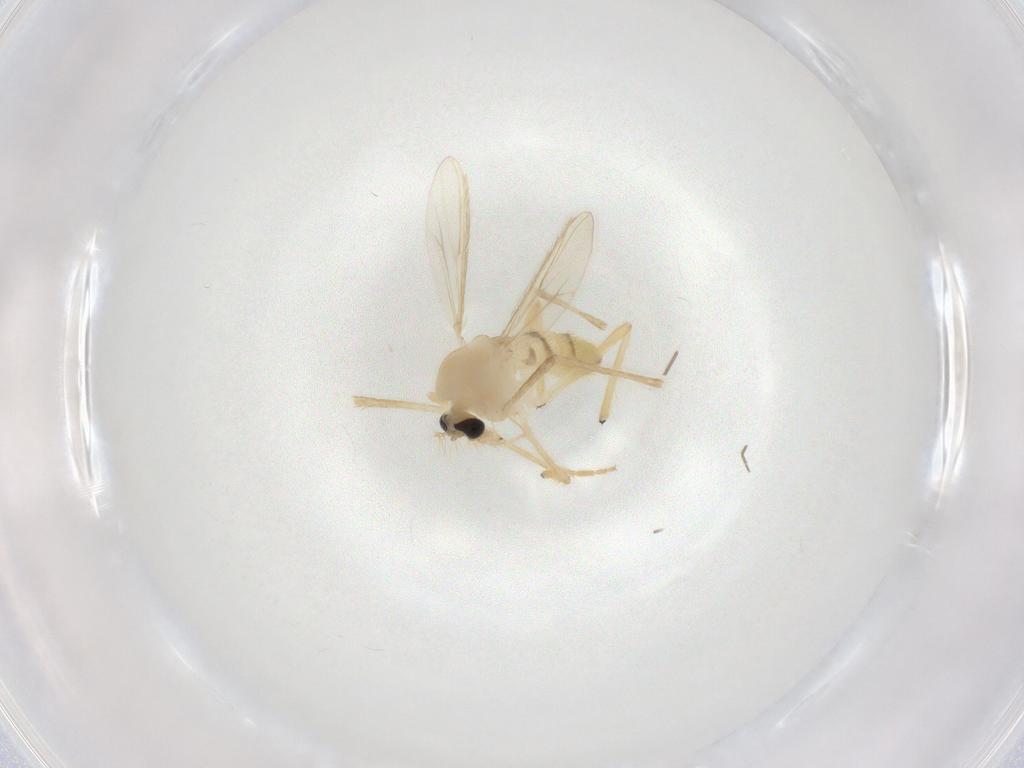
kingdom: Animalia
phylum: Arthropoda
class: Insecta
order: Diptera
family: Chironomidae
